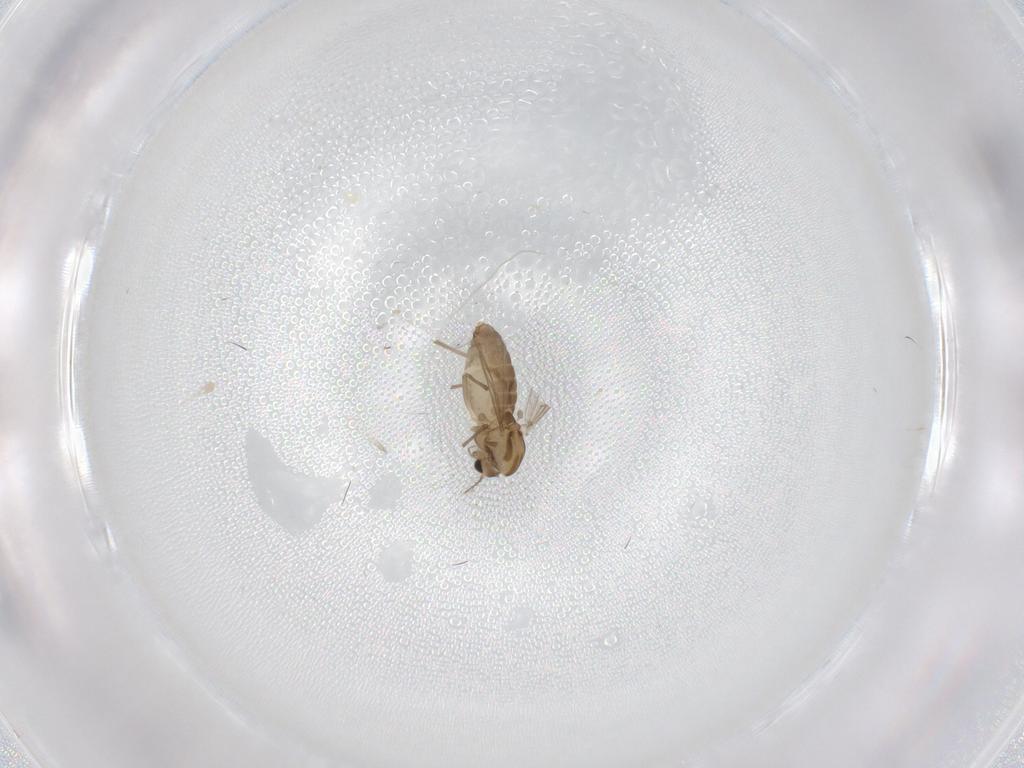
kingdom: Animalia
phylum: Arthropoda
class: Insecta
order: Diptera
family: Chironomidae
